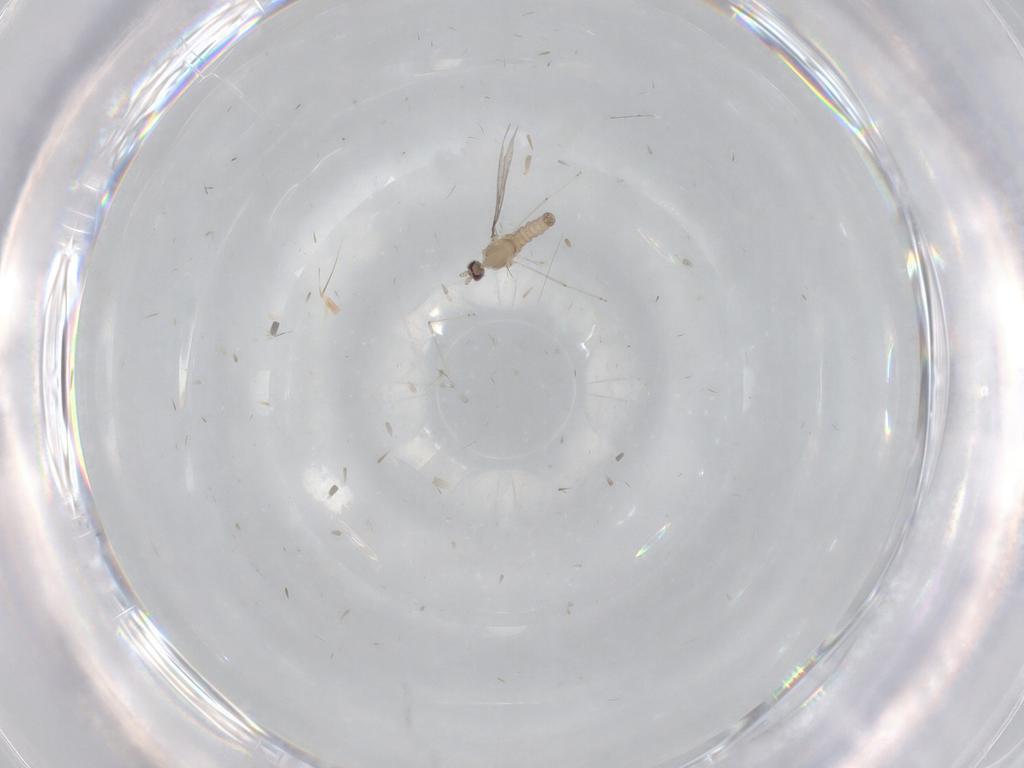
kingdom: Animalia
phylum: Arthropoda
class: Insecta
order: Diptera
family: Cecidomyiidae
